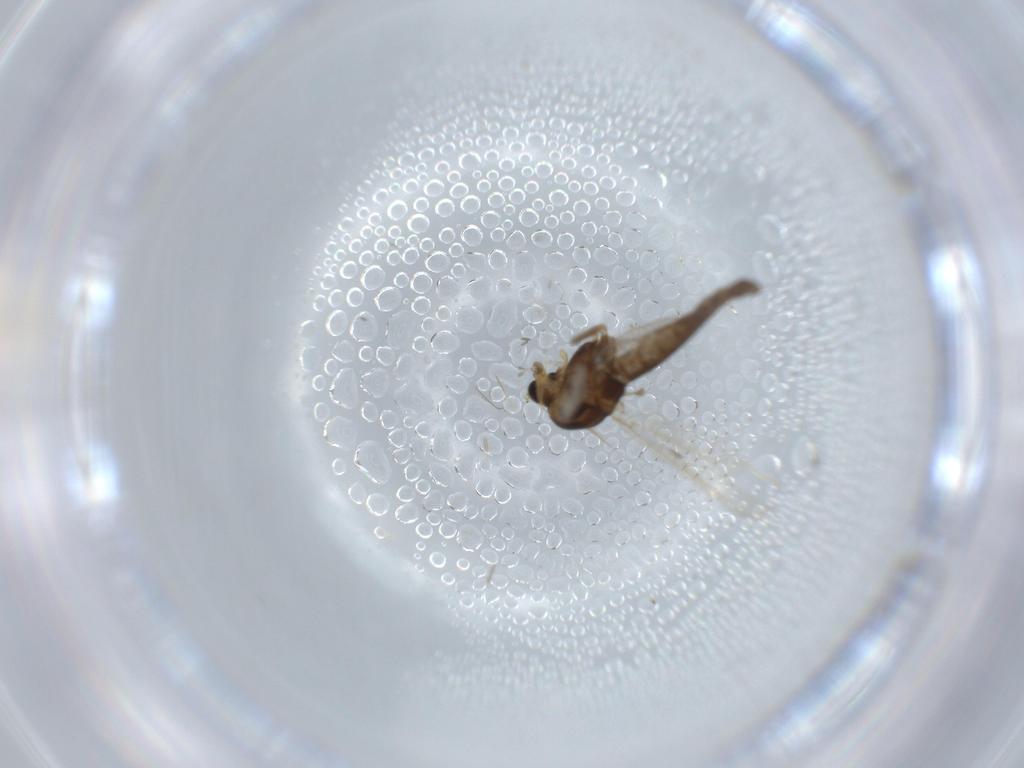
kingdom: Animalia
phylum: Arthropoda
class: Insecta
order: Diptera
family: Chironomidae
